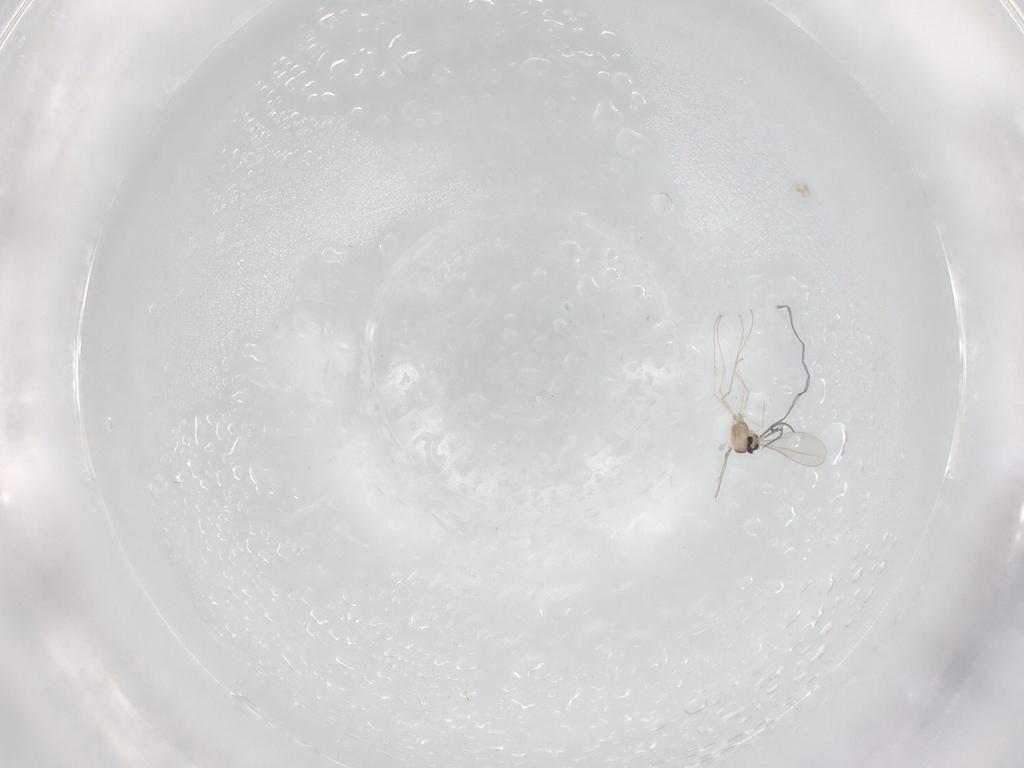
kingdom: Animalia
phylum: Arthropoda
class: Insecta
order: Diptera
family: Cecidomyiidae
